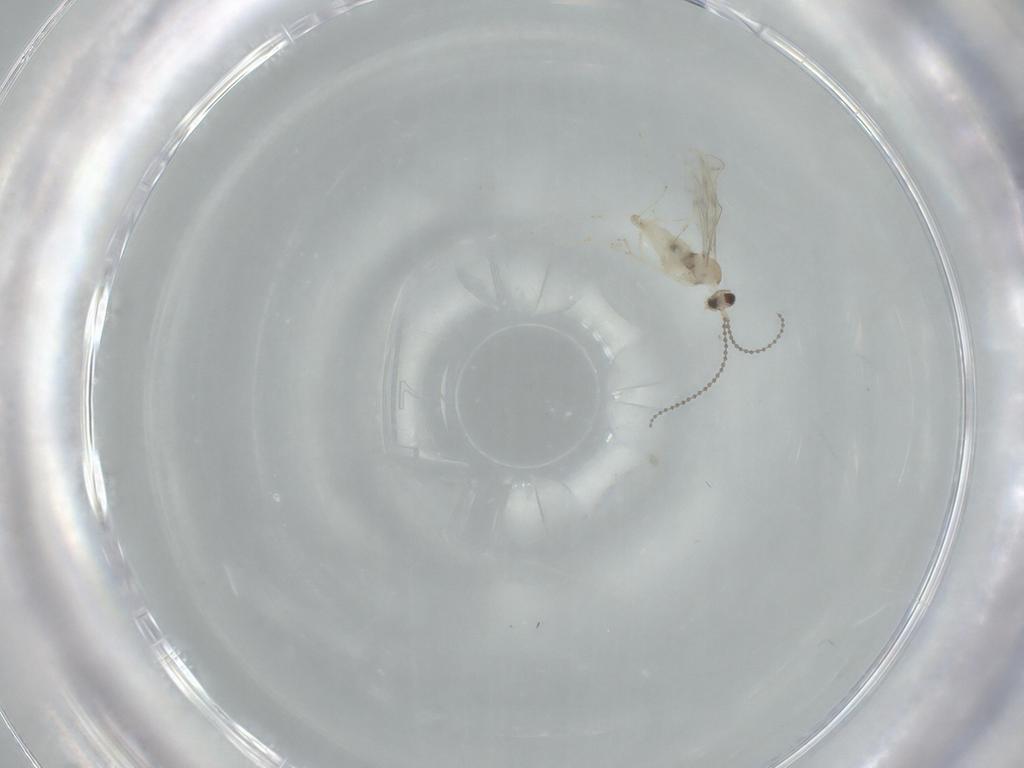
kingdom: Animalia
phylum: Arthropoda
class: Insecta
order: Diptera
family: Cecidomyiidae
